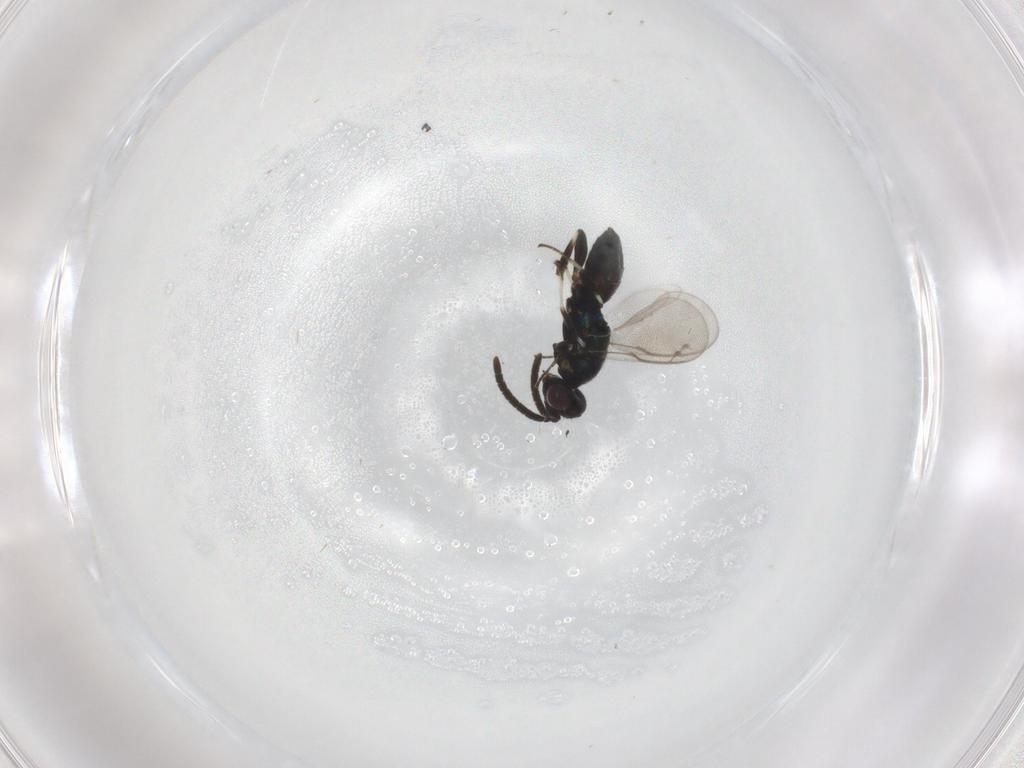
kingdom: Animalia
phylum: Arthropoda
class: Insecta
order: Hymenoptera
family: Eupelmidae
